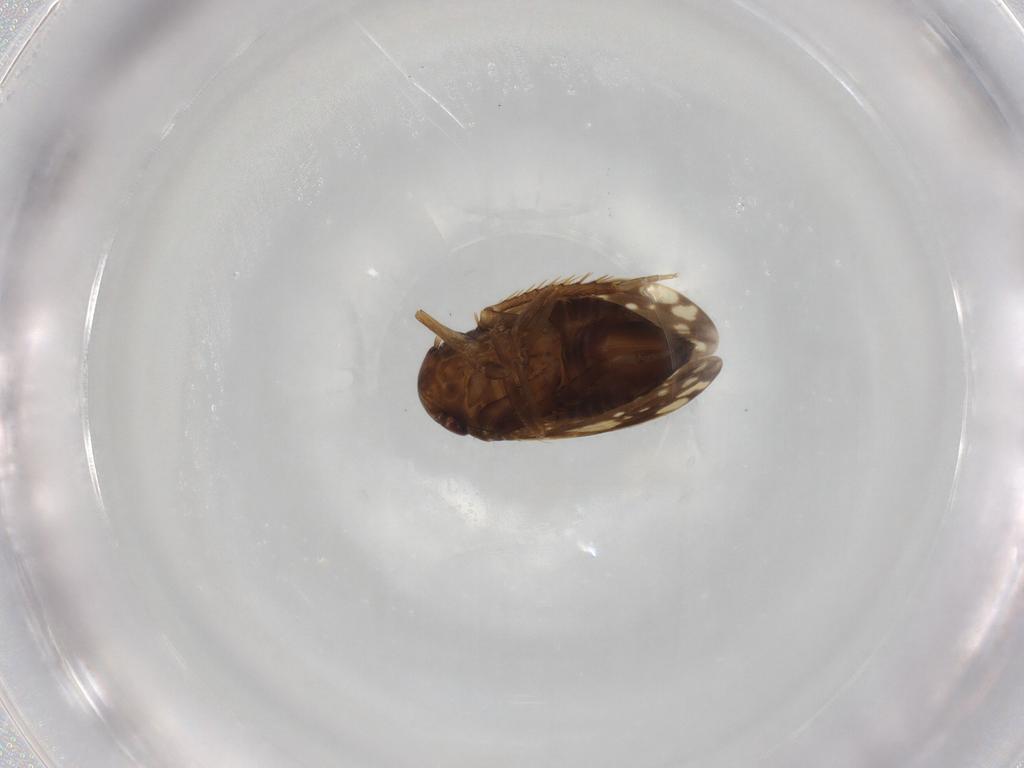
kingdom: Animalia
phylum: Arthropoda
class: Insecta
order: Hemiptera
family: Cicadellidae
